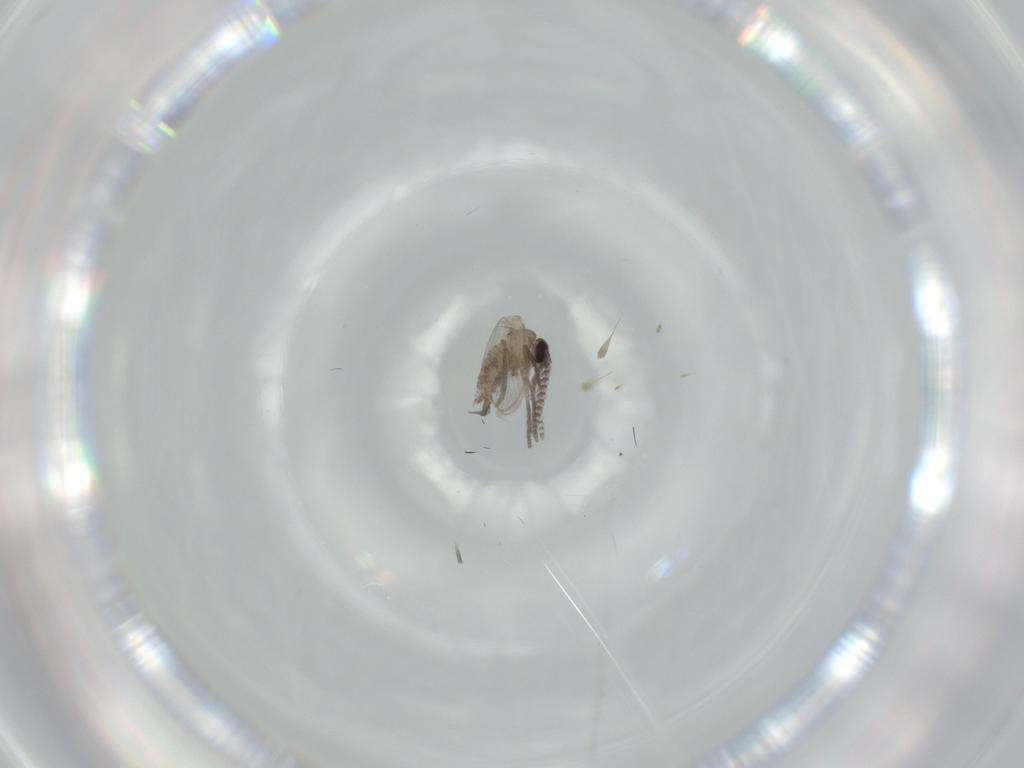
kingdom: Animalia
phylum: Arthropoda
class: Insecta
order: Diptera
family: Psychodidae
